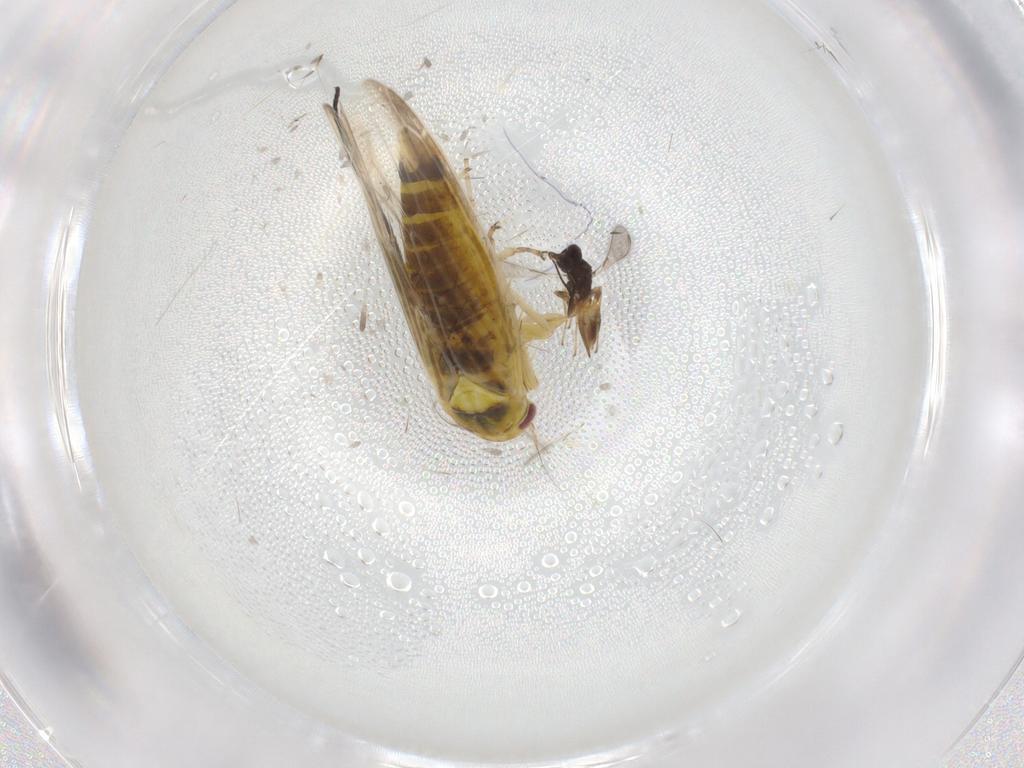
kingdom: Animalia
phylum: Arthropoda
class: Insecta
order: Hemiptera
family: Cicadellidae
